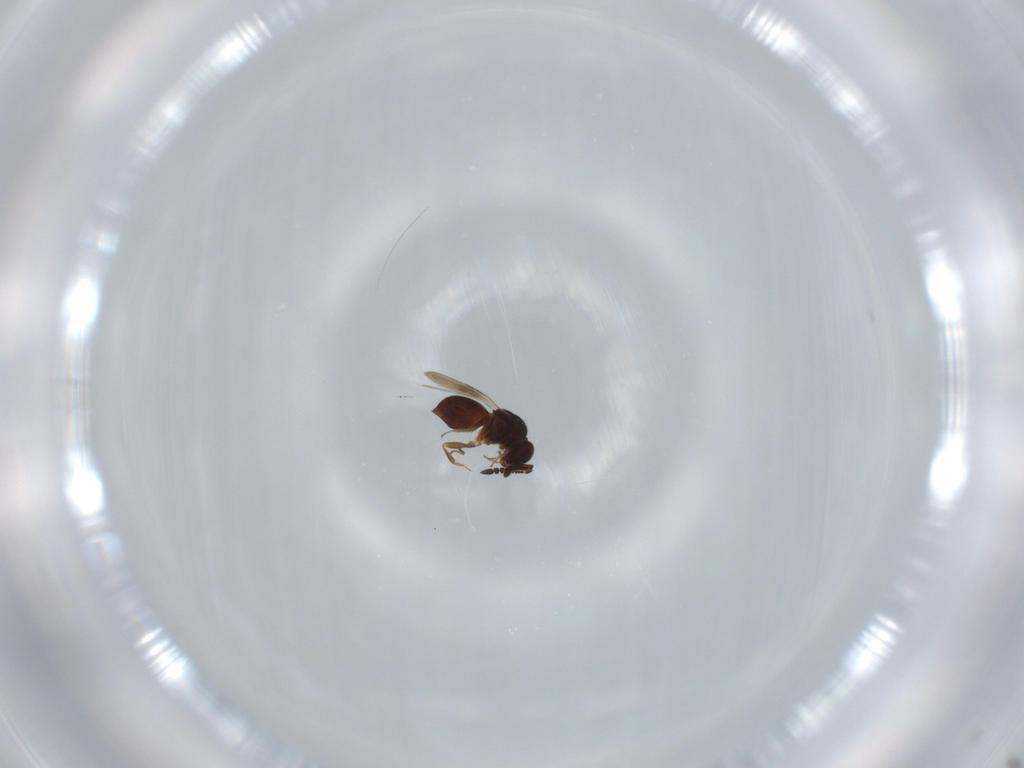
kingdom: Animalia
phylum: Arthropoda
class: Insecta
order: Hymenoptera
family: Ceraphronidae
